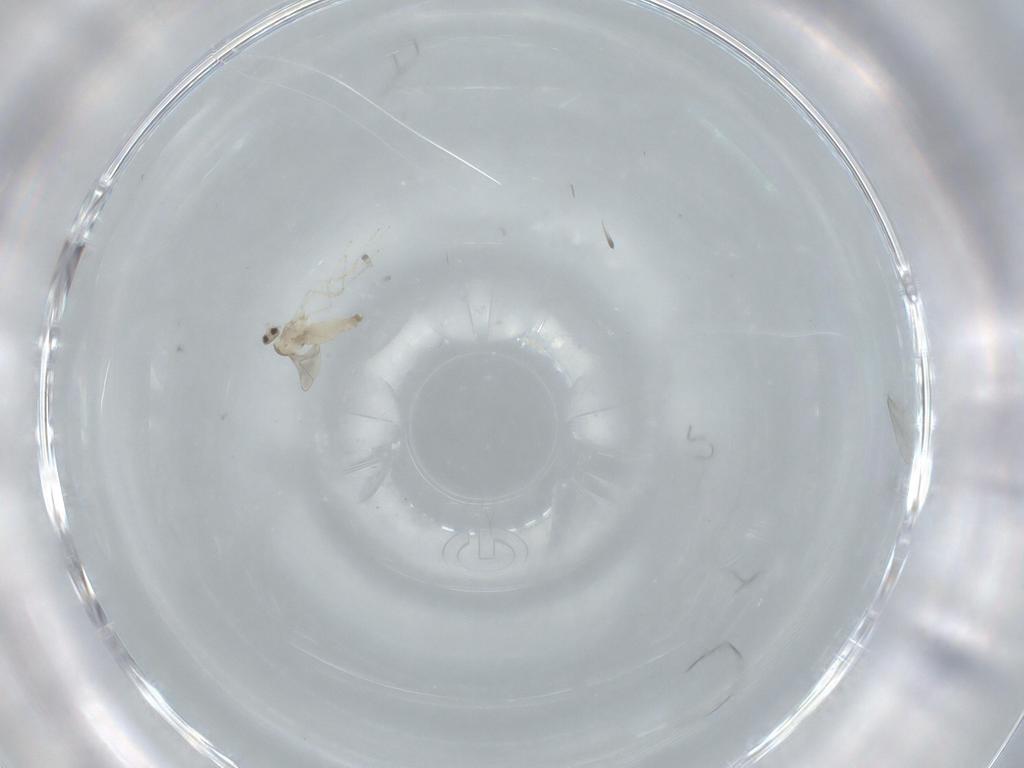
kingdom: Animalia
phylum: Arthropoda
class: Insecta
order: Diptera
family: Cecidomyiidae
